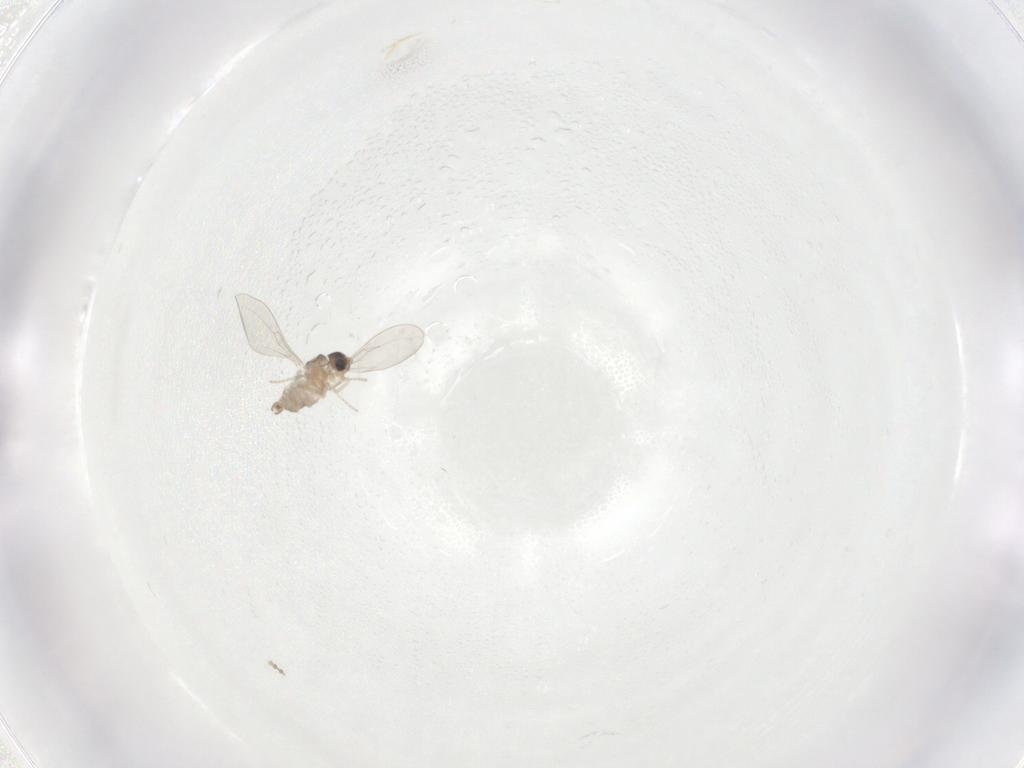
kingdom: Animalia
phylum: Arthropoda
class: Insecta
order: Diptera
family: Cecidomyiidae
